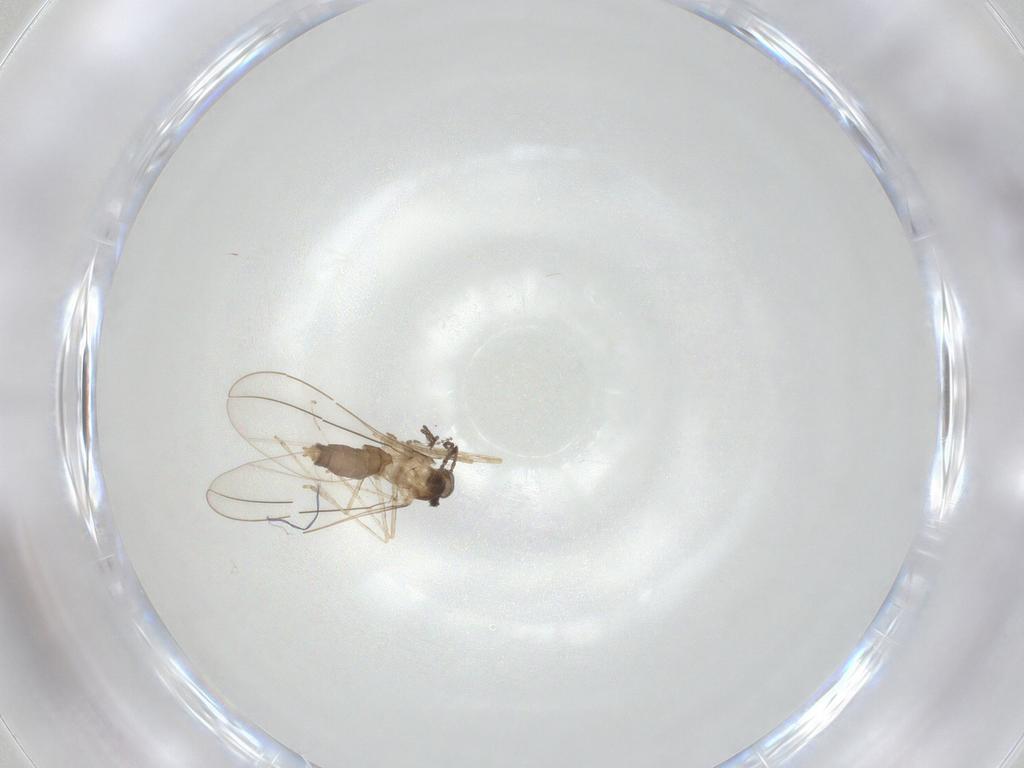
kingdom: Animalia
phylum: Arthropoda
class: Insecta
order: Diptera
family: Cecidomyiidae
